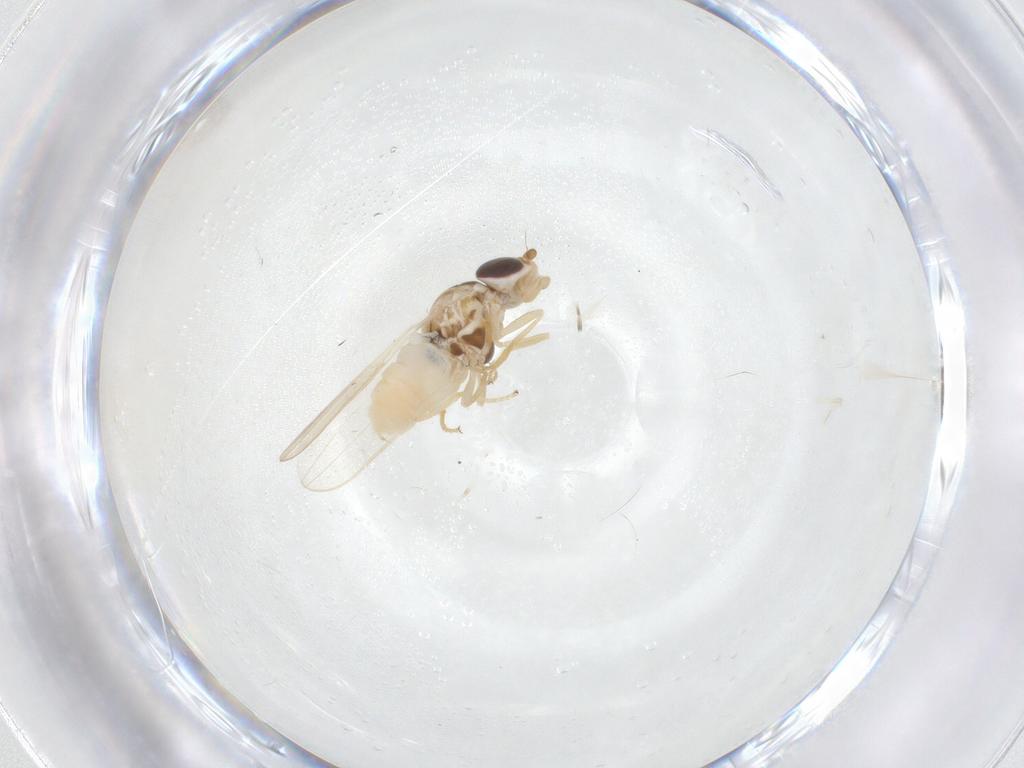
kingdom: Animalia
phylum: Arthropoda
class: Insecta
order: Diptera
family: Chloropidae
